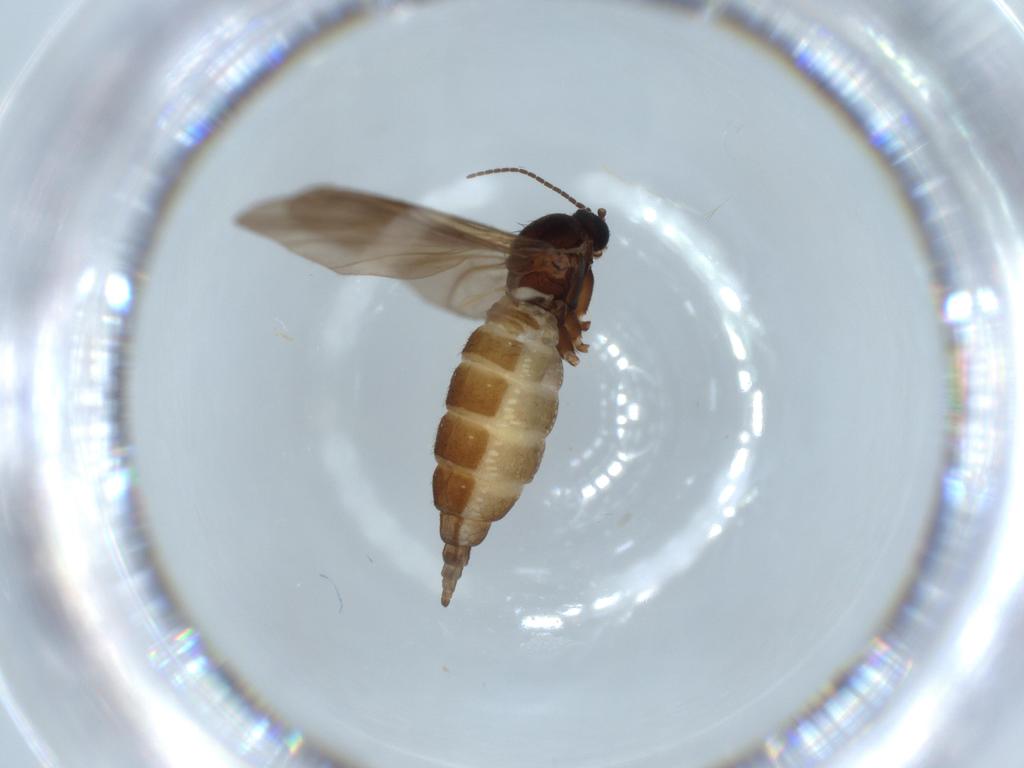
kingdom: Animalia
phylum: Arthropoda
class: Insecta
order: Diptera
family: Sciaridae
